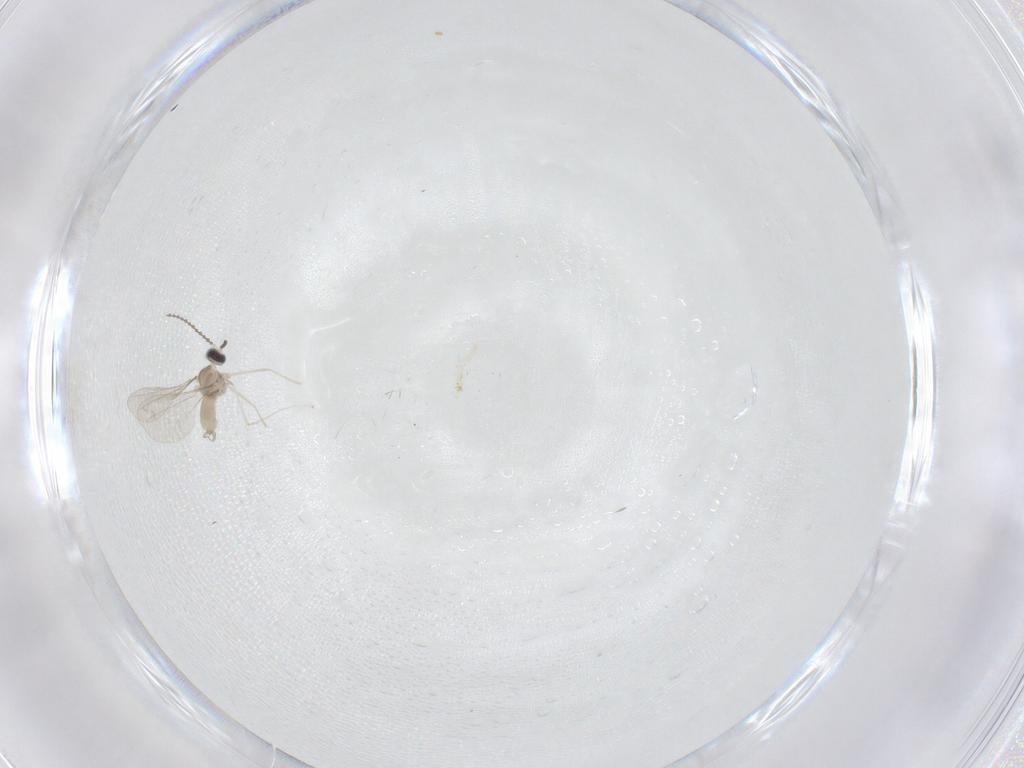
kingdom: Animalia
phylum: Arthropoda
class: Insecta
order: Diptera
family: Cecidomyiidae
